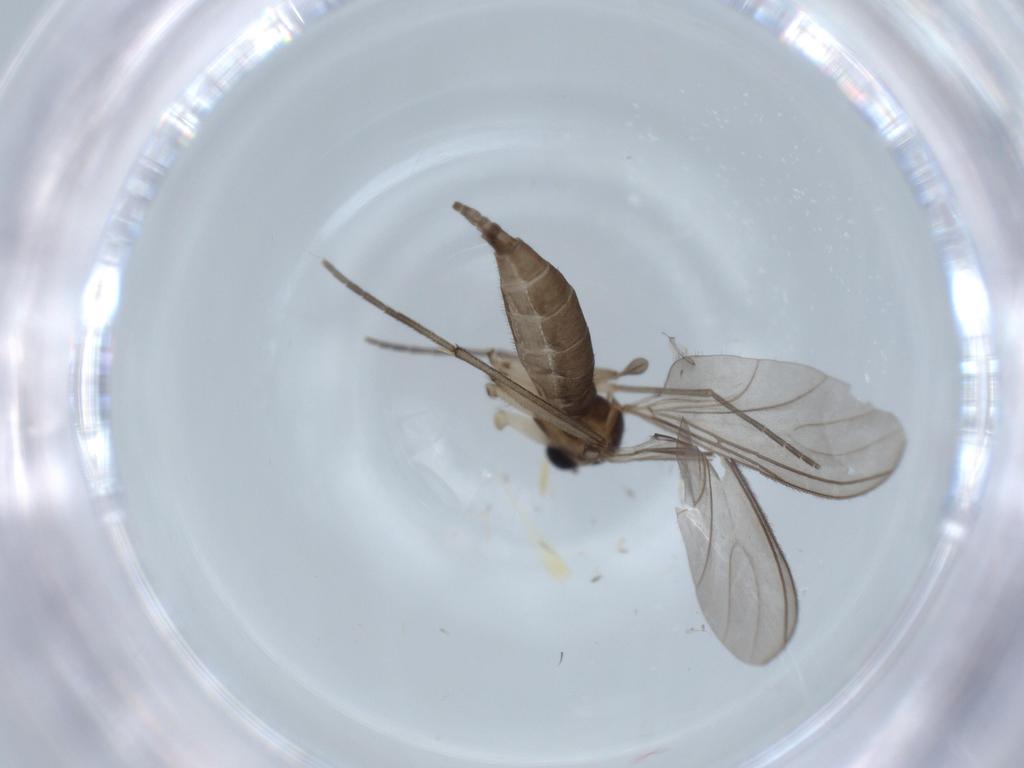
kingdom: Animalia
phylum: Arthropoda
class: Insecta
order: Diptera
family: Sciaridae
